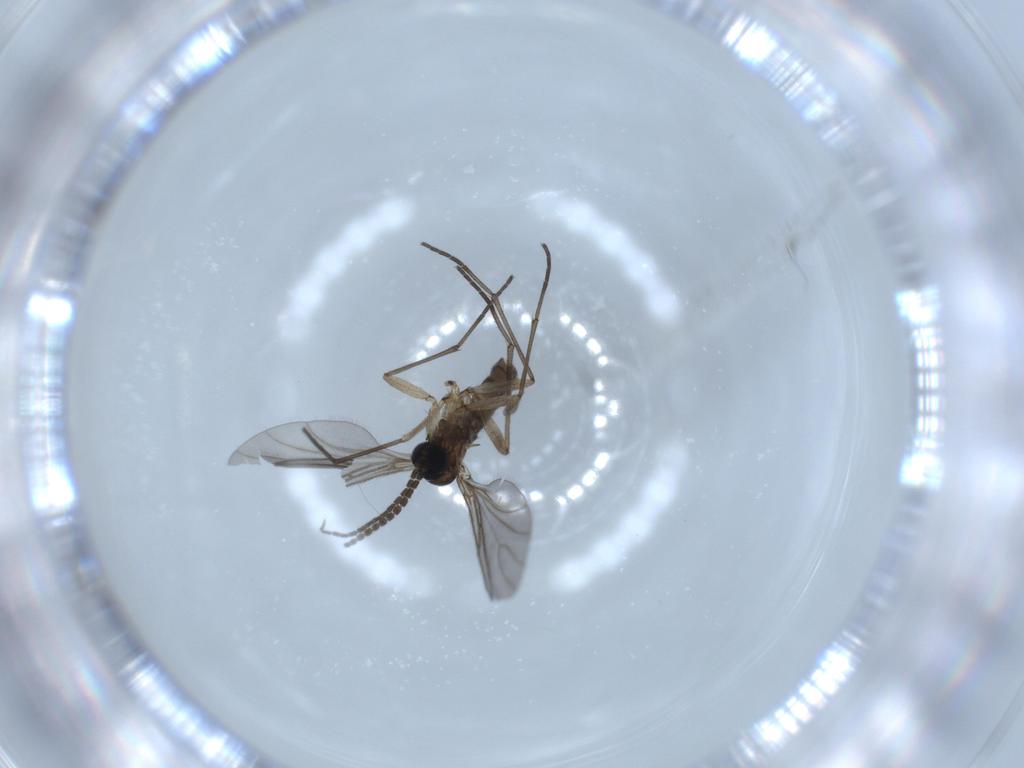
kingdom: Animalia
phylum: Arthropoda
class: Insecta
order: Diptera
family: Sciaridae
